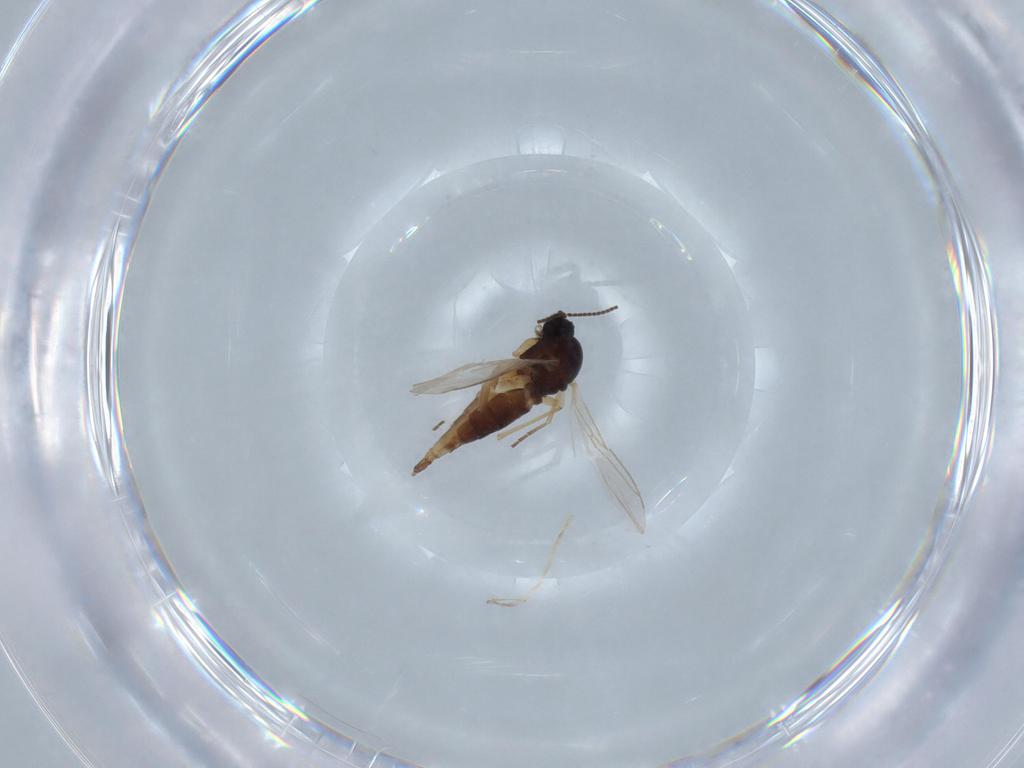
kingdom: Animalia
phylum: Arthropoda
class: Insecta
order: Diptera
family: Sciaridae
